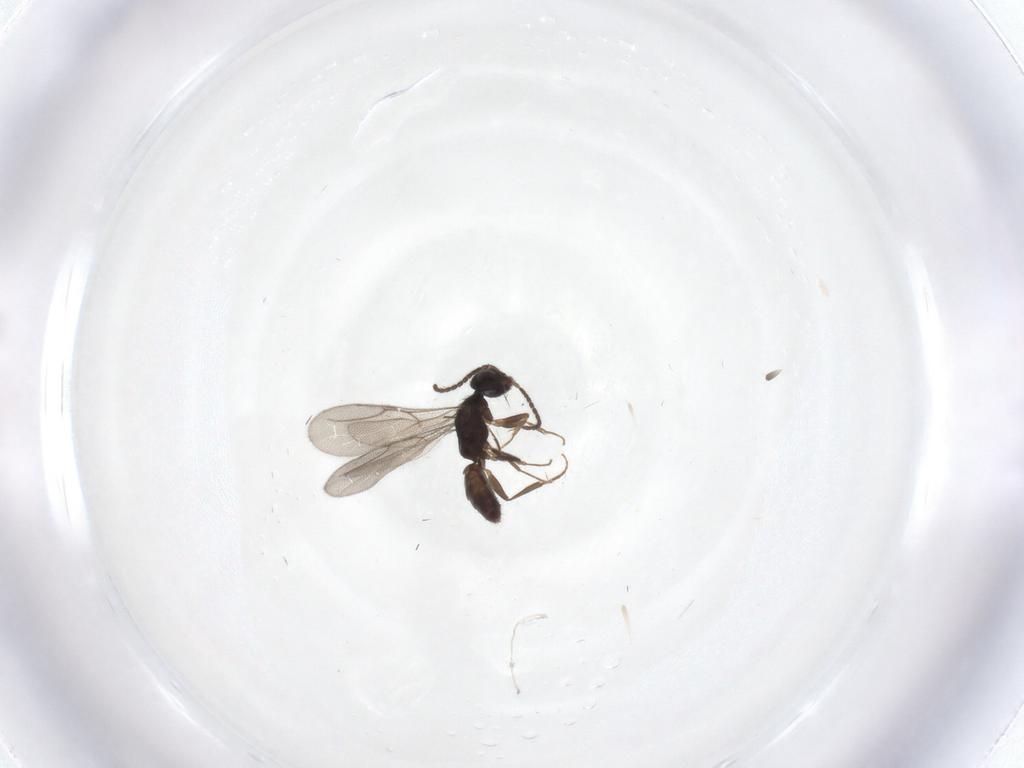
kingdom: Animalia
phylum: Arthropoda
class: Insecta
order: Hymenoptera
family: Bethylidae
